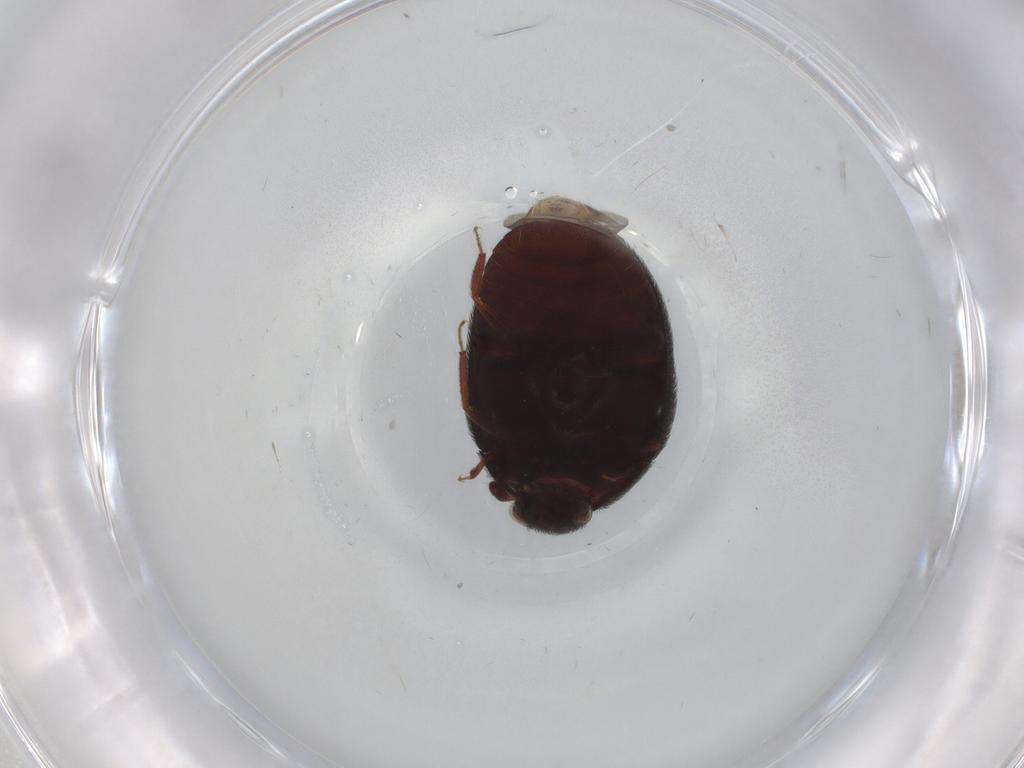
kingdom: Animalia
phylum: Arthropoda
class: Insecta
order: Coleoptera
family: Dermestidae
